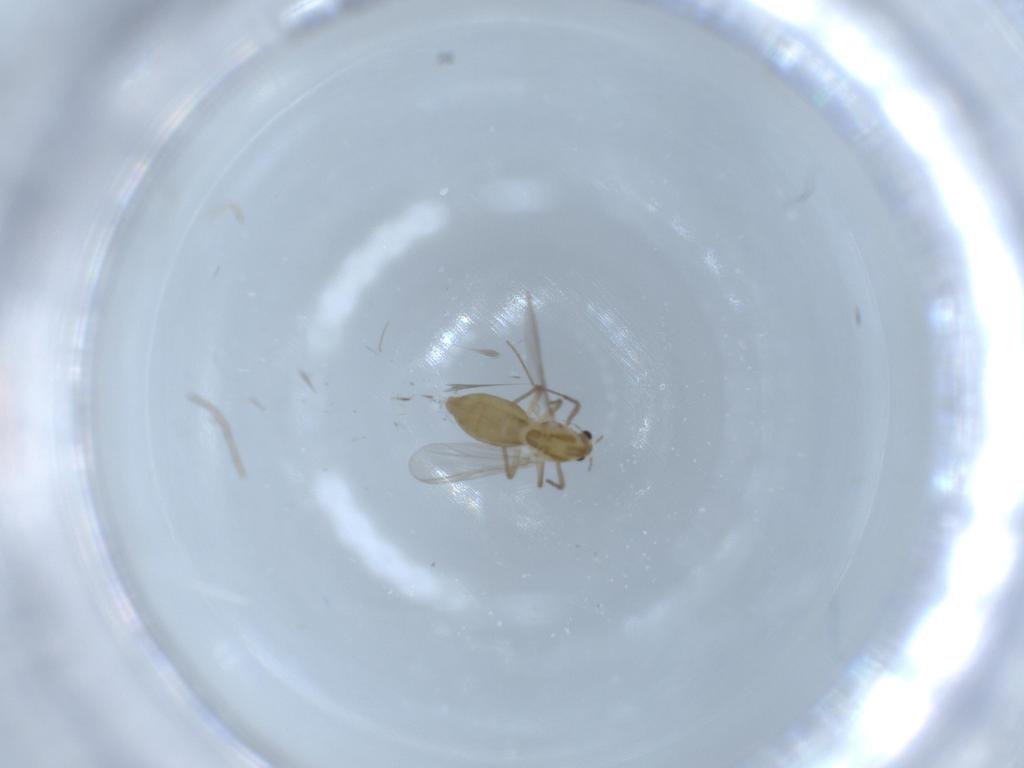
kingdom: Animalia
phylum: Arthropoda
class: Insecta
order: Diptera
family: Chironomidae
